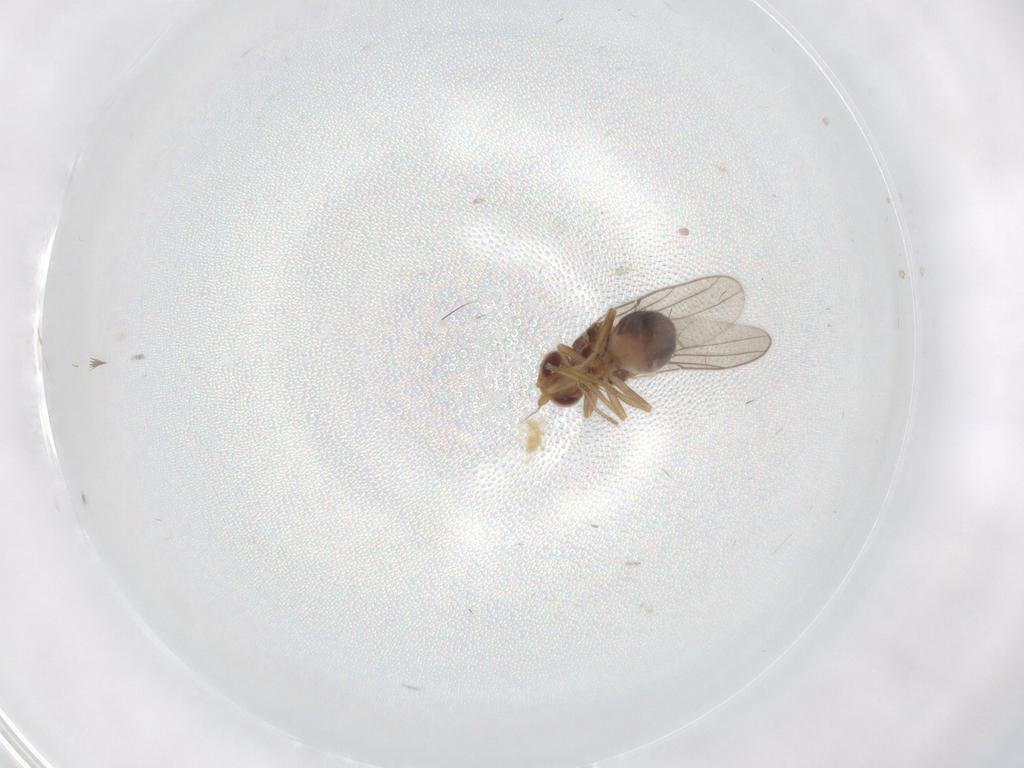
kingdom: Animalia
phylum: Arthropoda
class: Insecta
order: Diptera
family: Chloropidae
